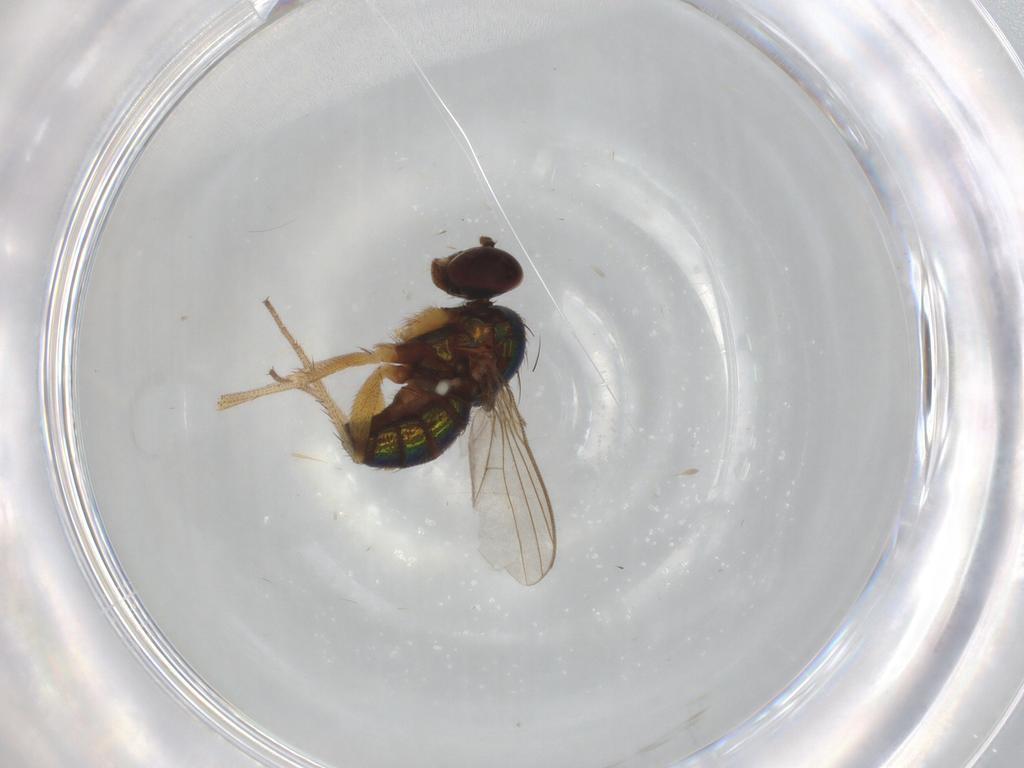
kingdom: Animalia
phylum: Arthropoda
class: Insecta
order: Diptera
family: Ephydridae
